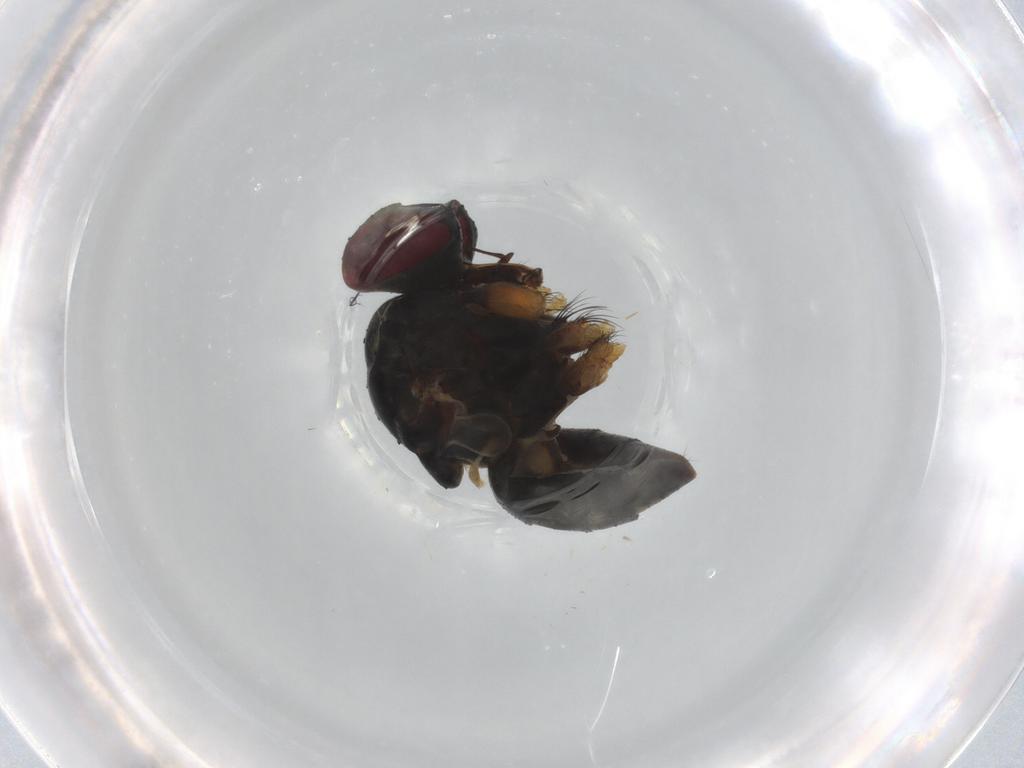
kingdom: Animalia
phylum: Arthropoda
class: Insecta
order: Diptera
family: Muscidae
